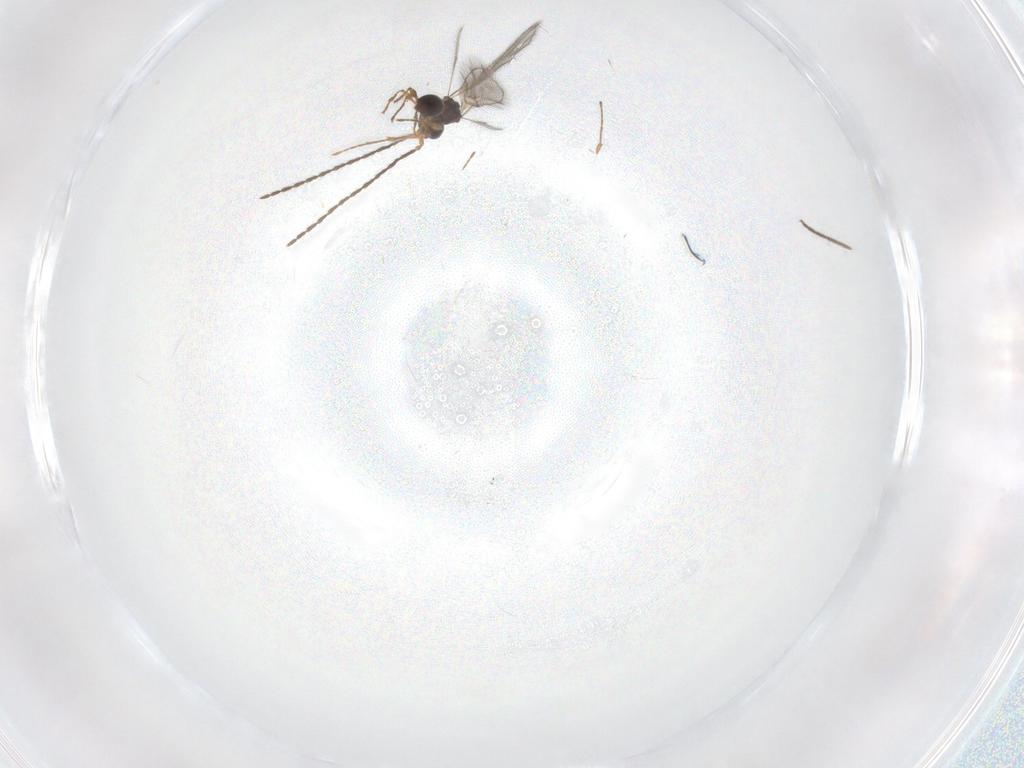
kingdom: Animalia
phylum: Arthropoda
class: Insecta
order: Hymenoptera
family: Diapriidae
